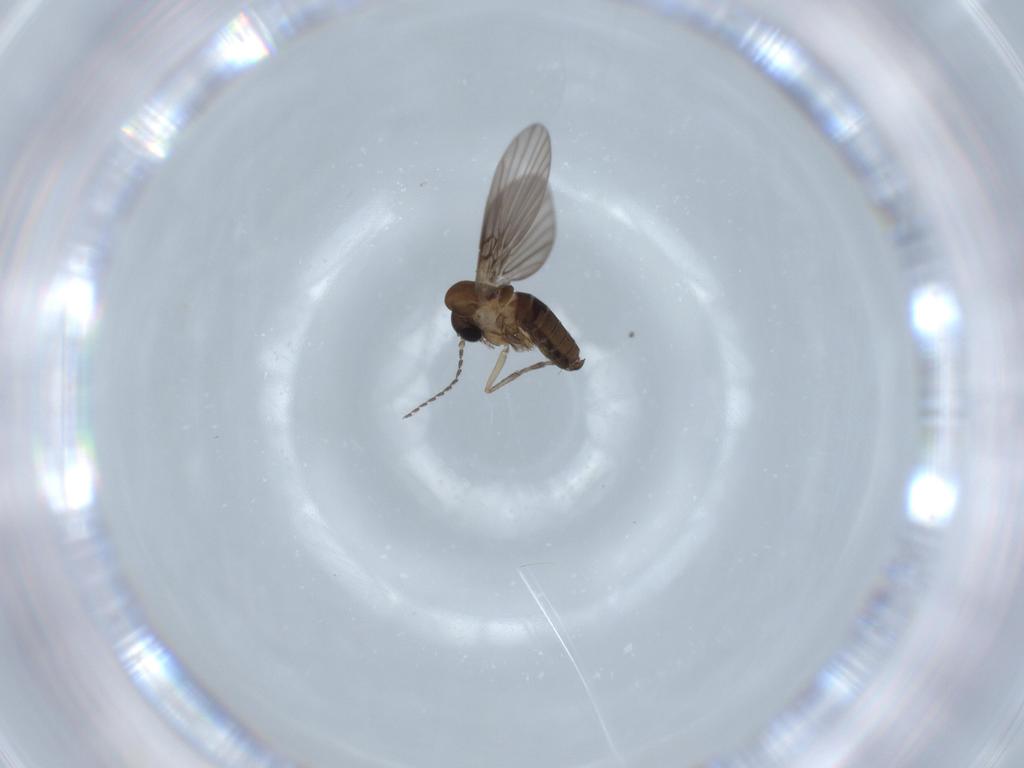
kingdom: Animalia
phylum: Arthropoda
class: Insecta
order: Diptera
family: Psychodidae
